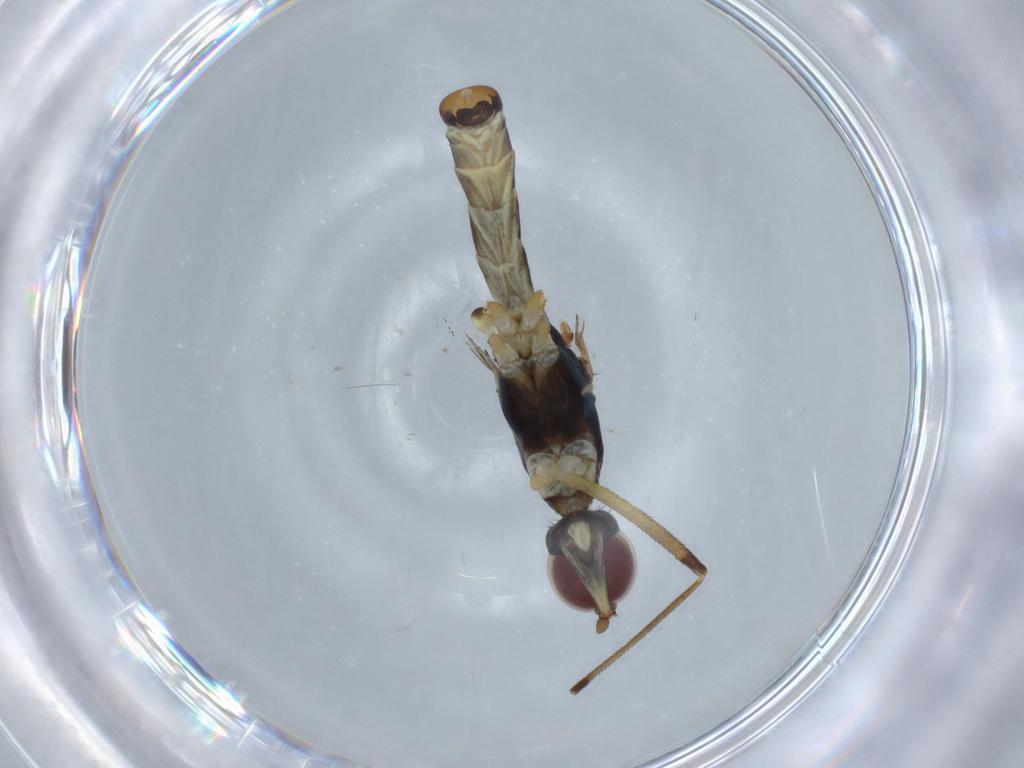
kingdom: Animalia
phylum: Arthropoda
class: Insecta
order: Diptera
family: Micropezidae
